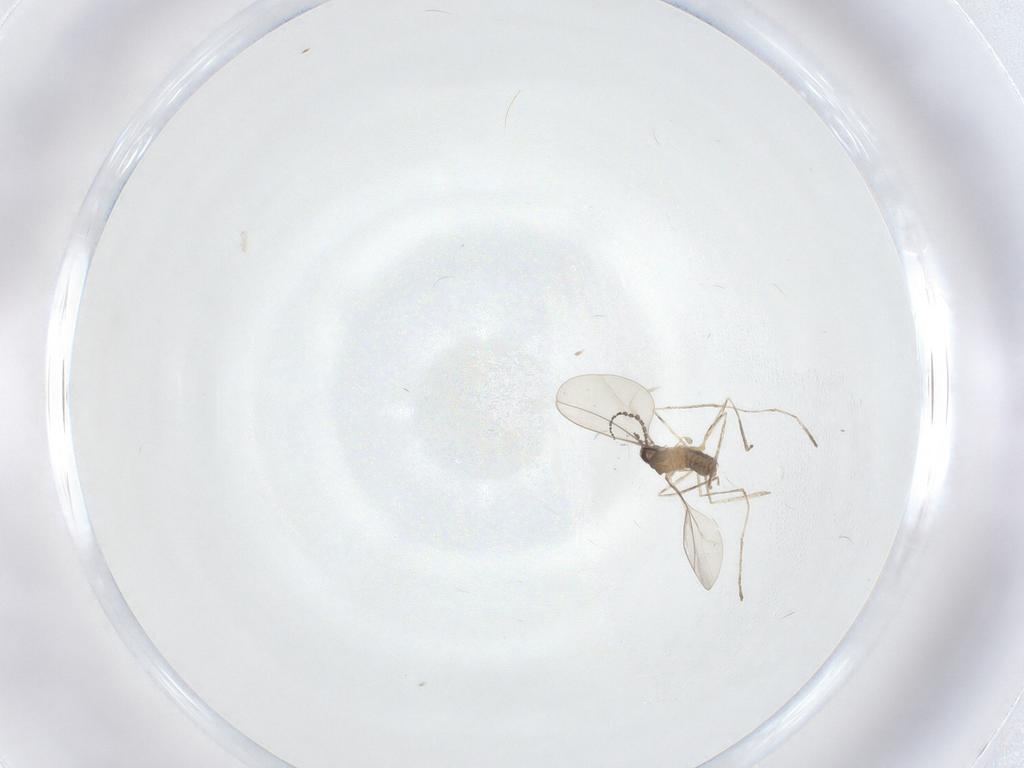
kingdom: Animalia
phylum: Arthropoda
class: Insecta
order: Diptera
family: Cecidomyiidae
